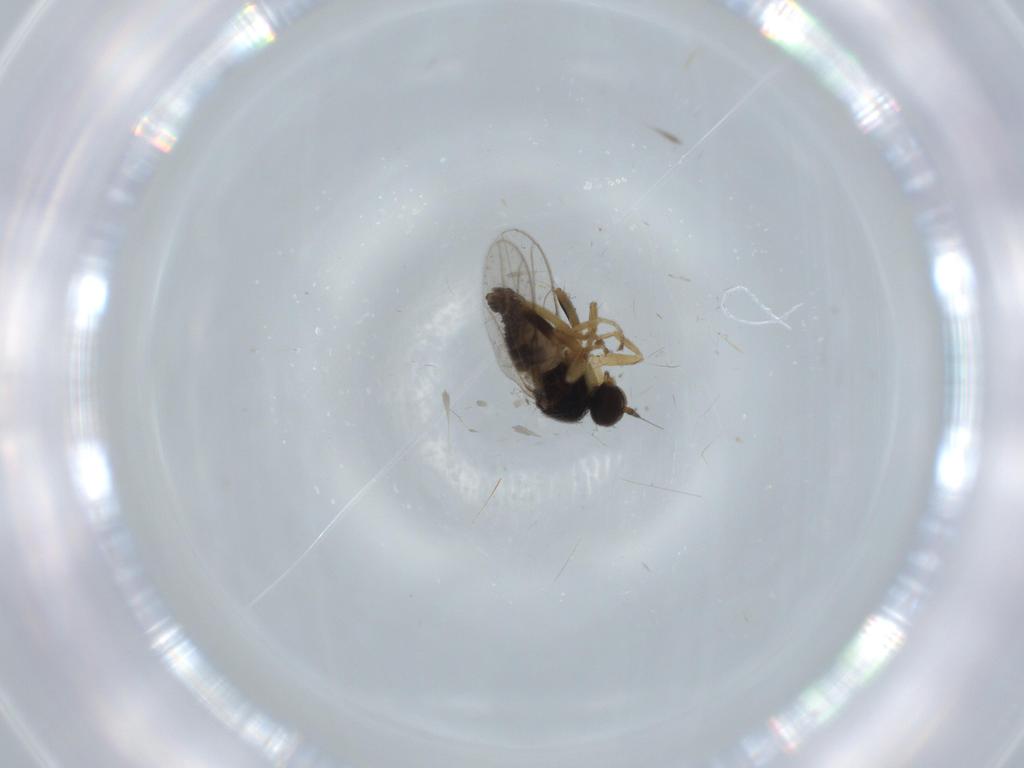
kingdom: Animalia
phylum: Arthropoda
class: Insecta
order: Diptera
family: Hybotidae
